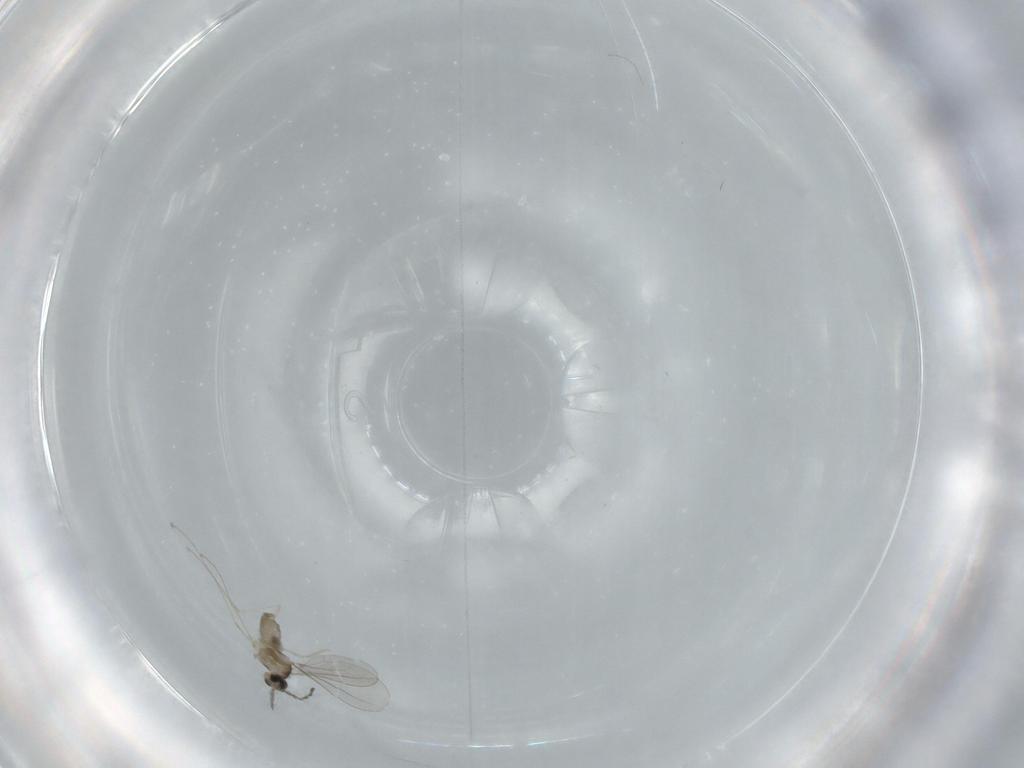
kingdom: Animalia
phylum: Arthropoda
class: Insecta
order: Diptera
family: Cecidomyiidae
